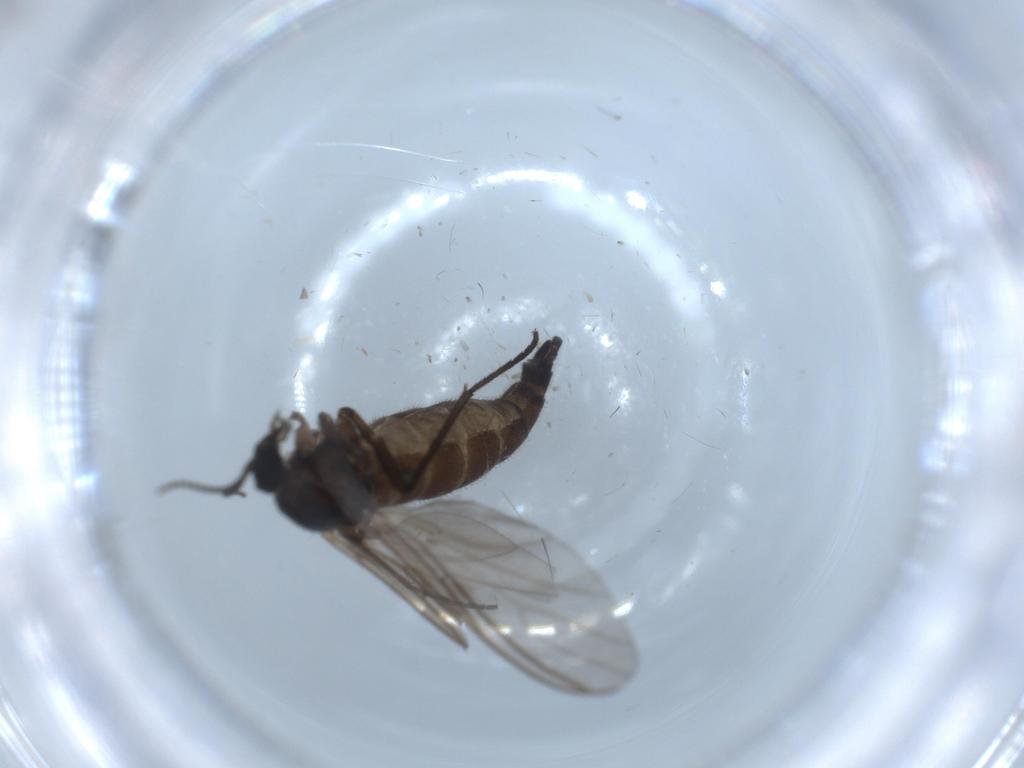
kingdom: Animalia
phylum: Arthropoda
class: Insecta
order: Diptera
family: Sciaridae
